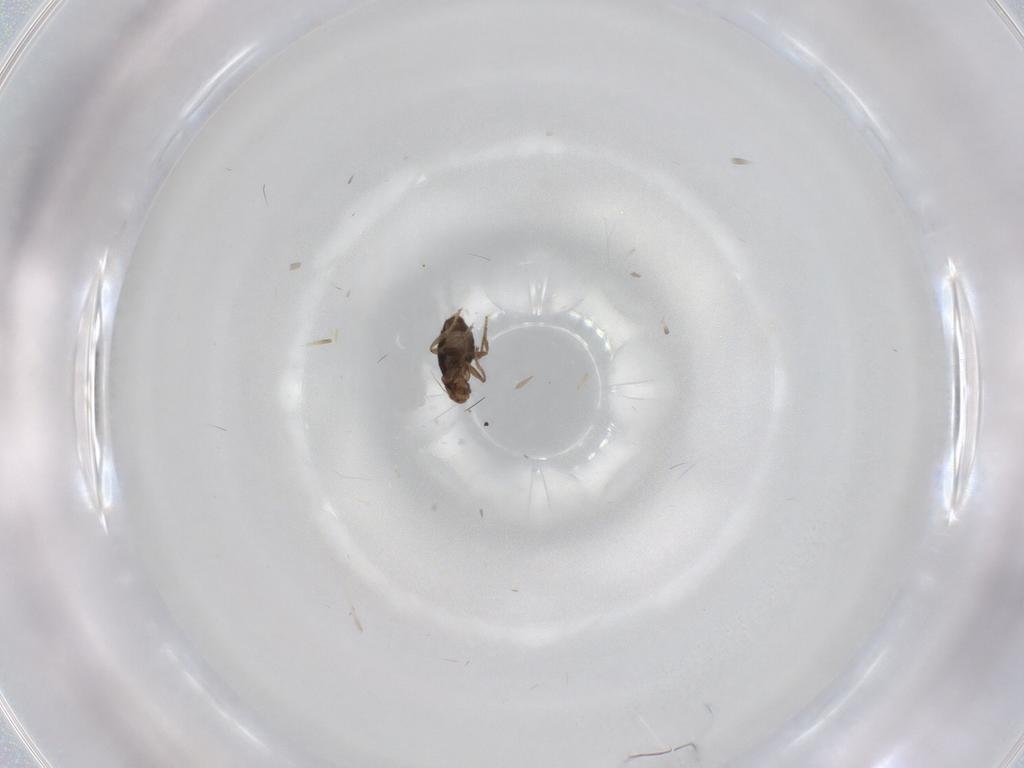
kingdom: Animalia
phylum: Arthropoda
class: Insecta
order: Diptera
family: Phoridae
